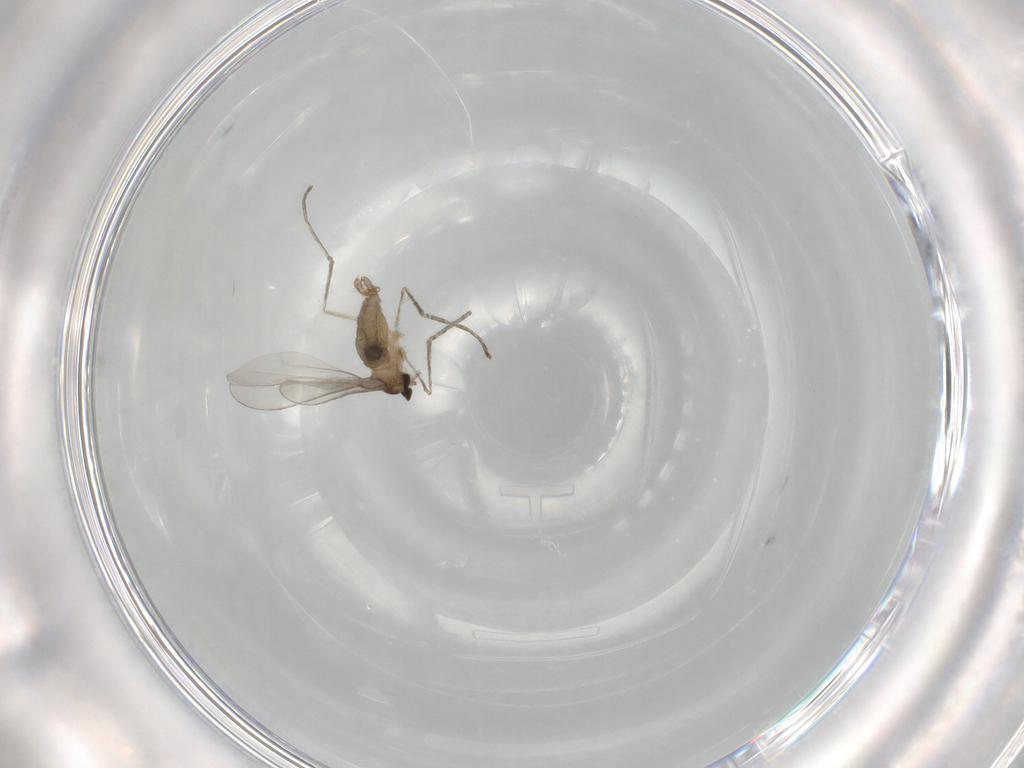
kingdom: Animalia
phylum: Arthropoda
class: Insecta
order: Diptera
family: Cecidomyiidae
